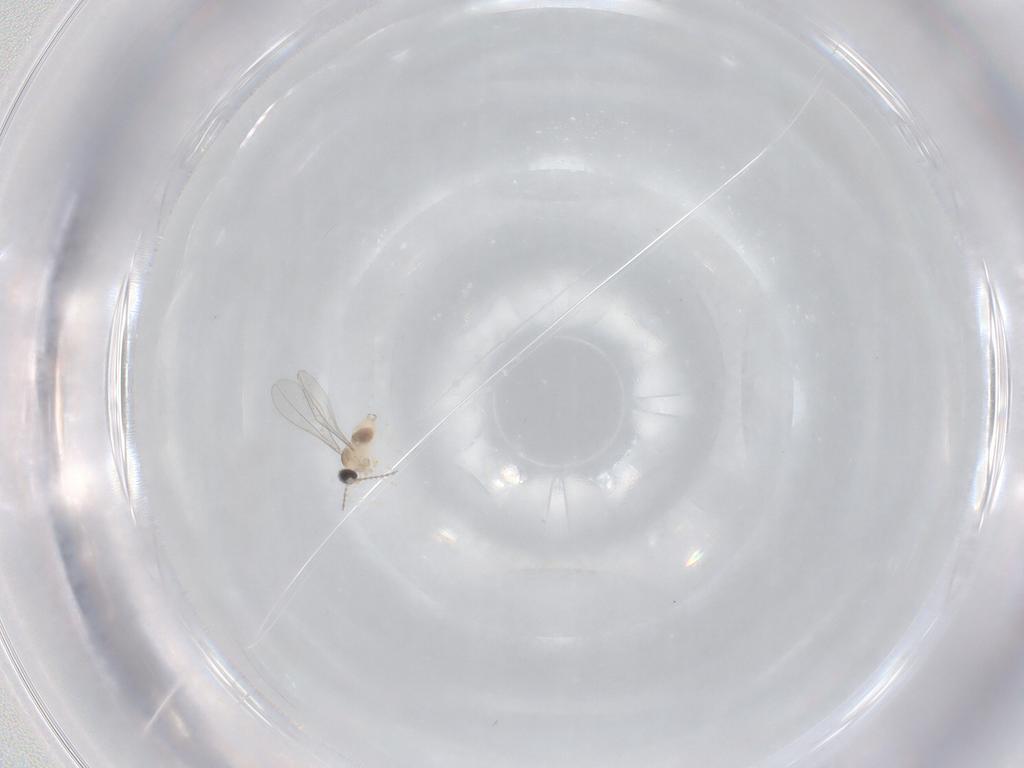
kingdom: Animalia
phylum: Arthropoda
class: Insecta
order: Diptera
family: Cecidomyiidae
